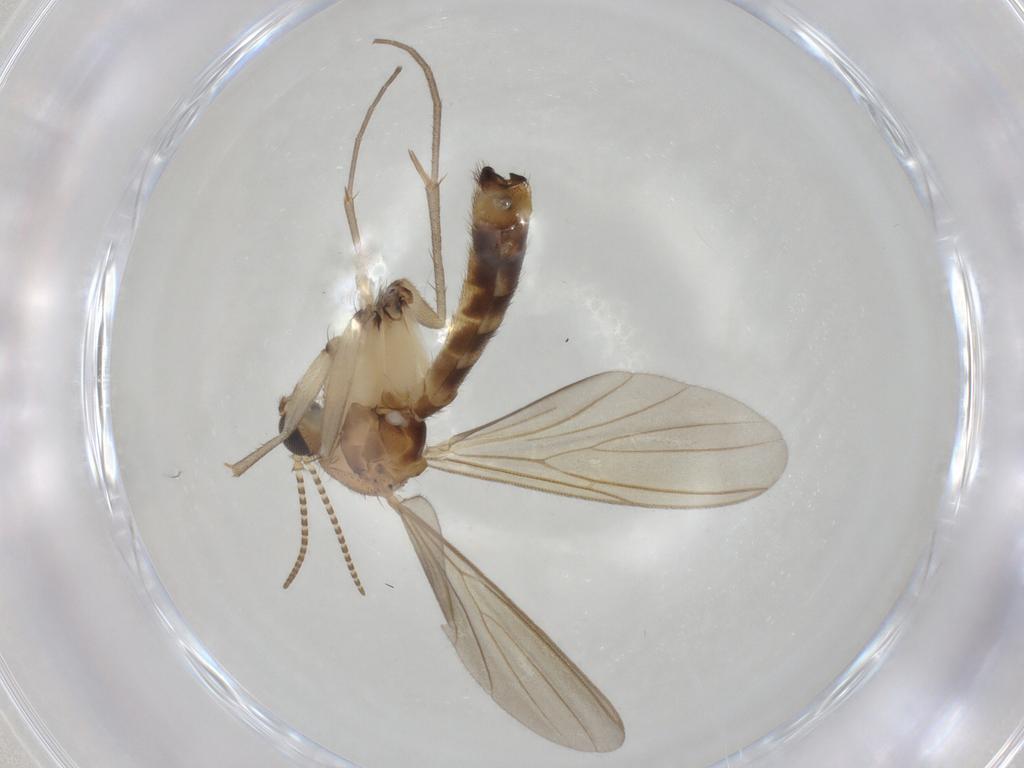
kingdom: Animalia
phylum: Arthropoda
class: Insecta
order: Diptera
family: Mycetophilidae
